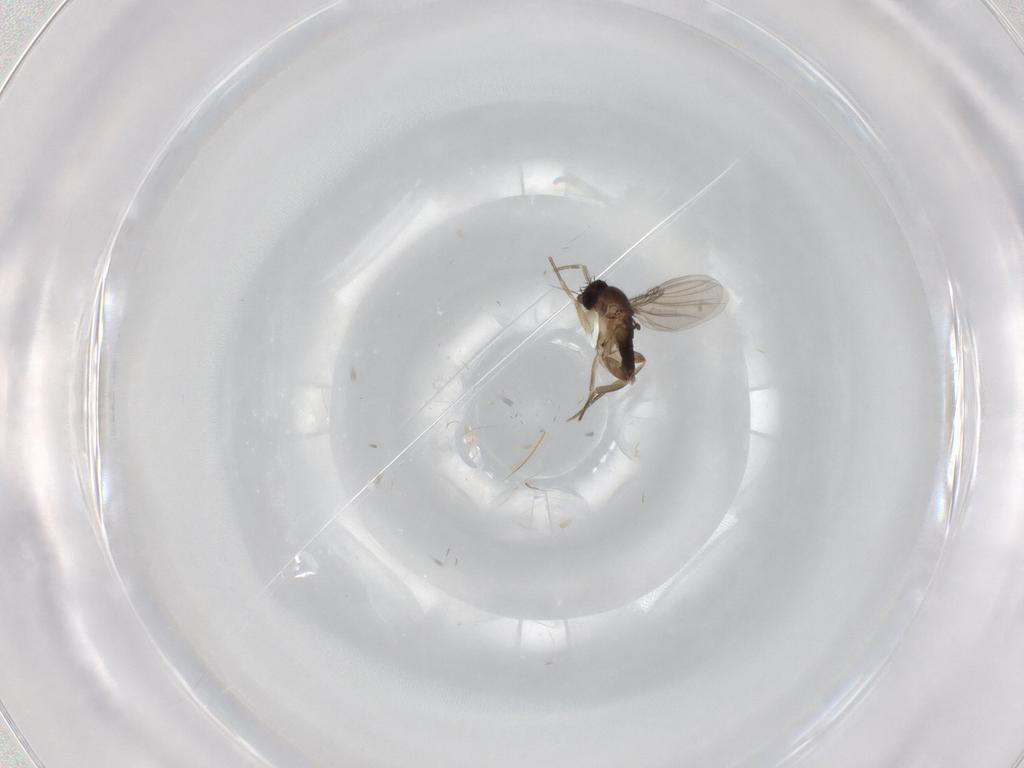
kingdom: Animalia
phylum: Arthropoda
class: Insecta
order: Diptera
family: Phoridae
